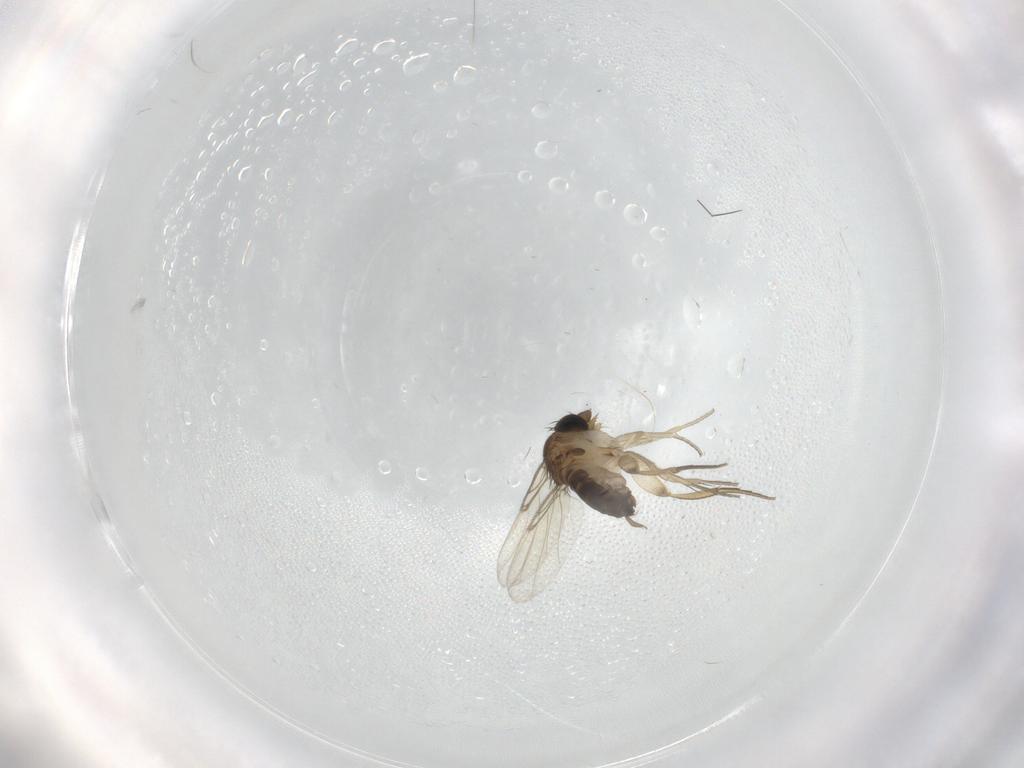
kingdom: Animalia
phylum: Arthropoda
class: Insecta
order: Diptera
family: Phoridae
